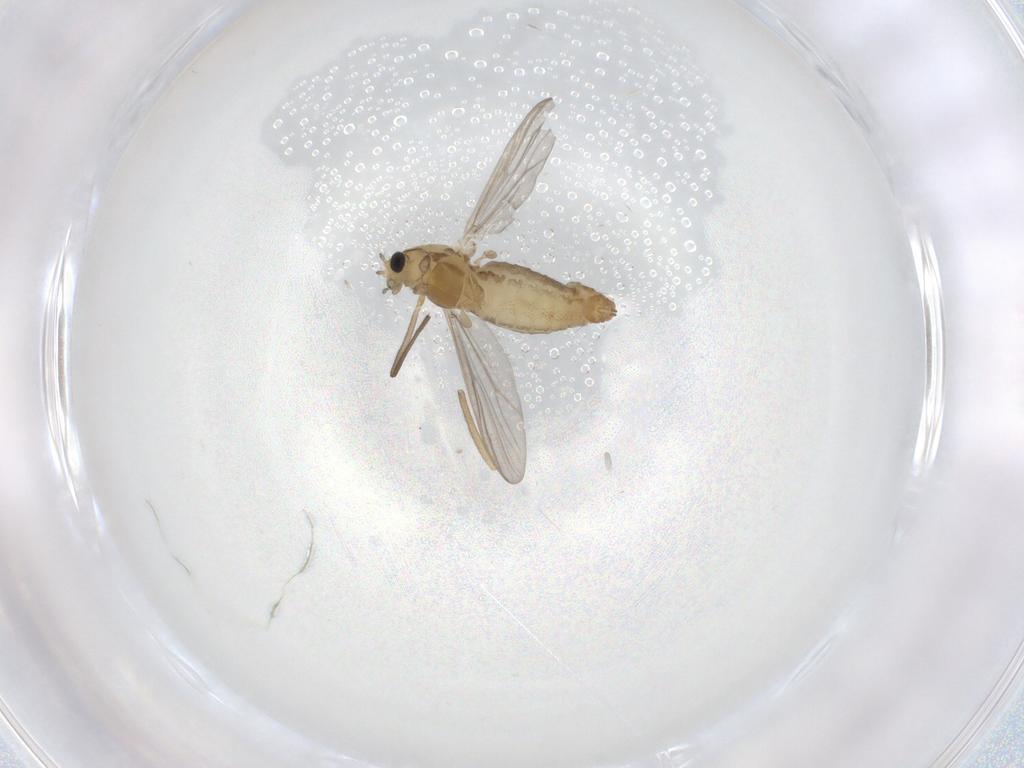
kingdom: Animalia
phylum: Arthropoda
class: Insecta
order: Diptera
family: Chironomidae
